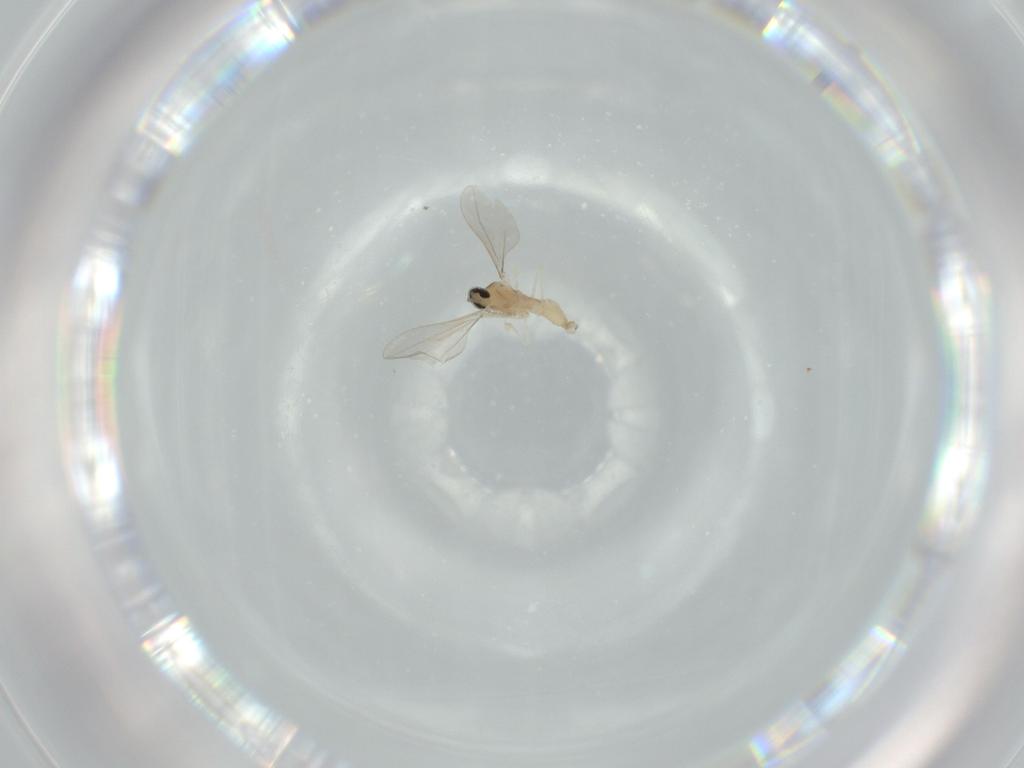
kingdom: Animalia
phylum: Arthropoda
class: Insecta
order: Diptera
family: Cecidomyiidae
